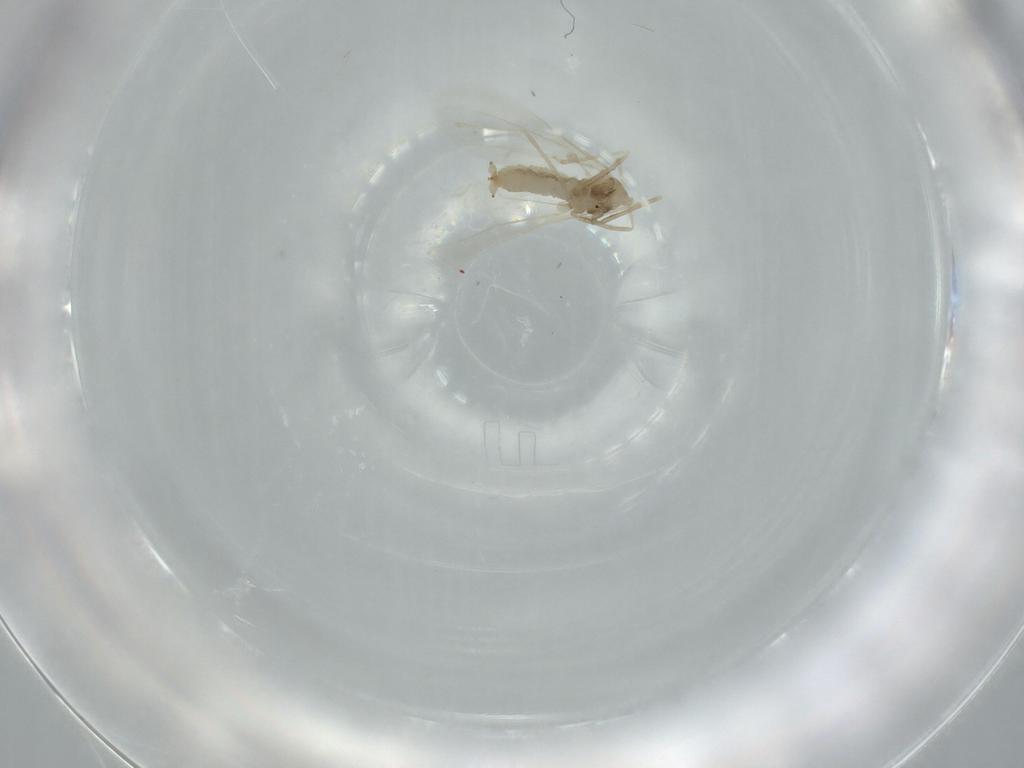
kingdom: Animalia
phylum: Arthropoda
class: Insecta
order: Diptera
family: Cecidomyiidae
